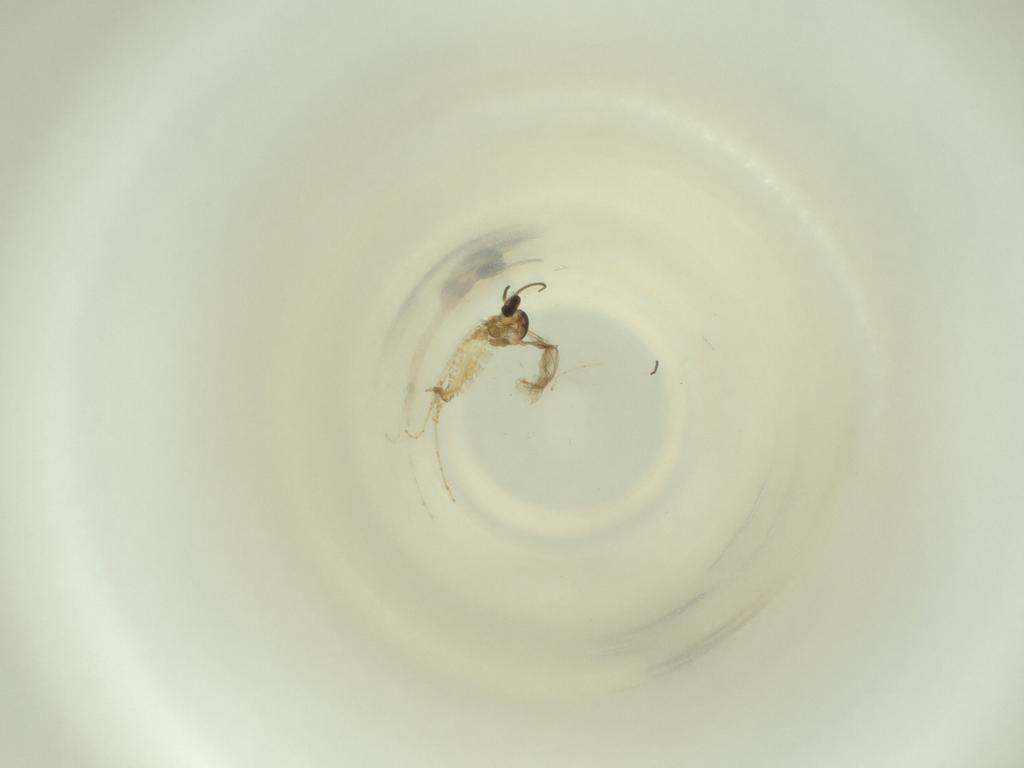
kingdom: Animalia
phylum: Arthropoda
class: Insecta
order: Diptera
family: Cecidomyiidae
